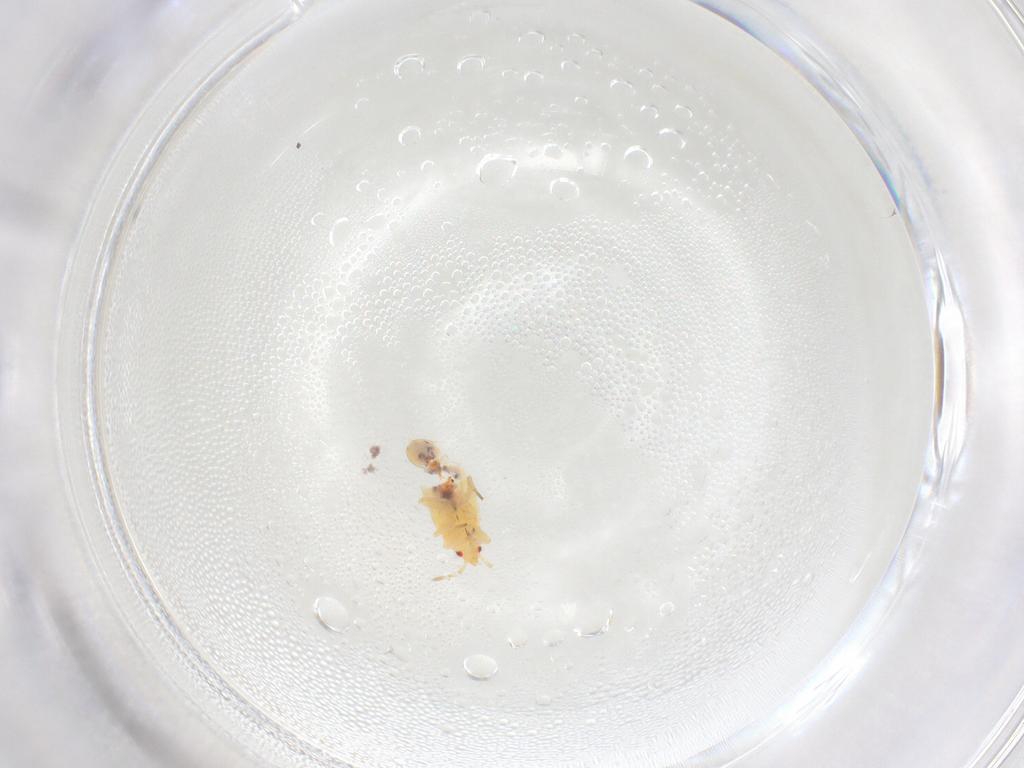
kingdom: Animalia
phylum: Arthropoda
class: Insecta
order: Hemiptera
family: Anthocoridae
